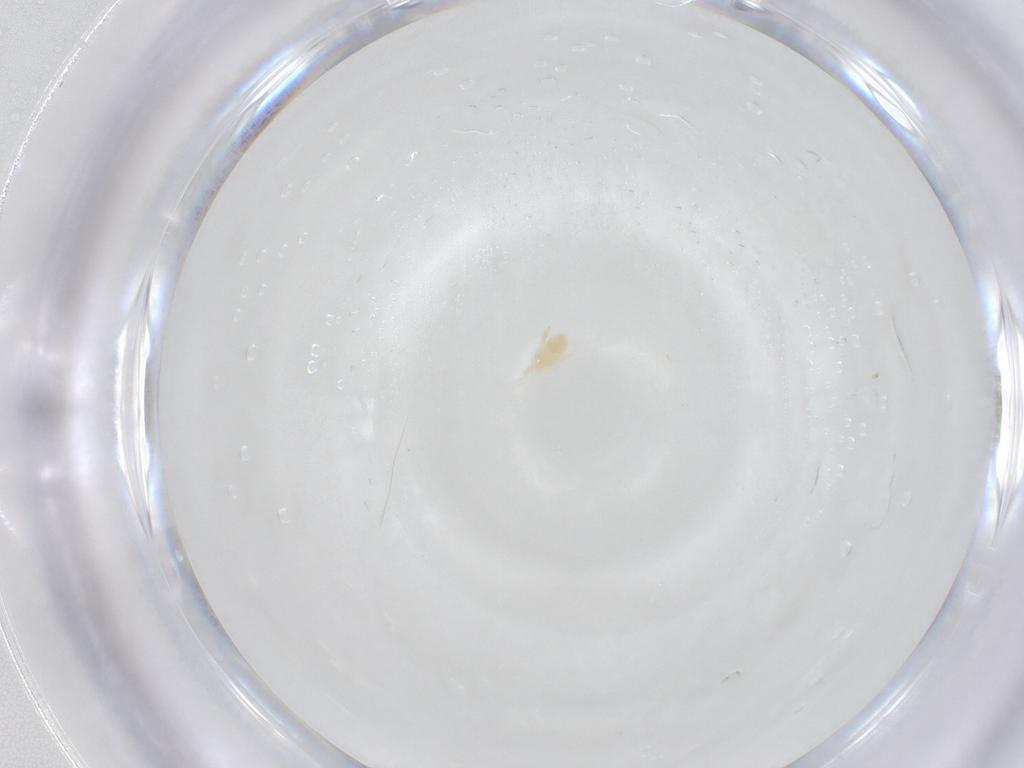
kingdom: Animalia
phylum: Arthropoda
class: Arachnida
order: Trombidiformes
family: Eupodidae
